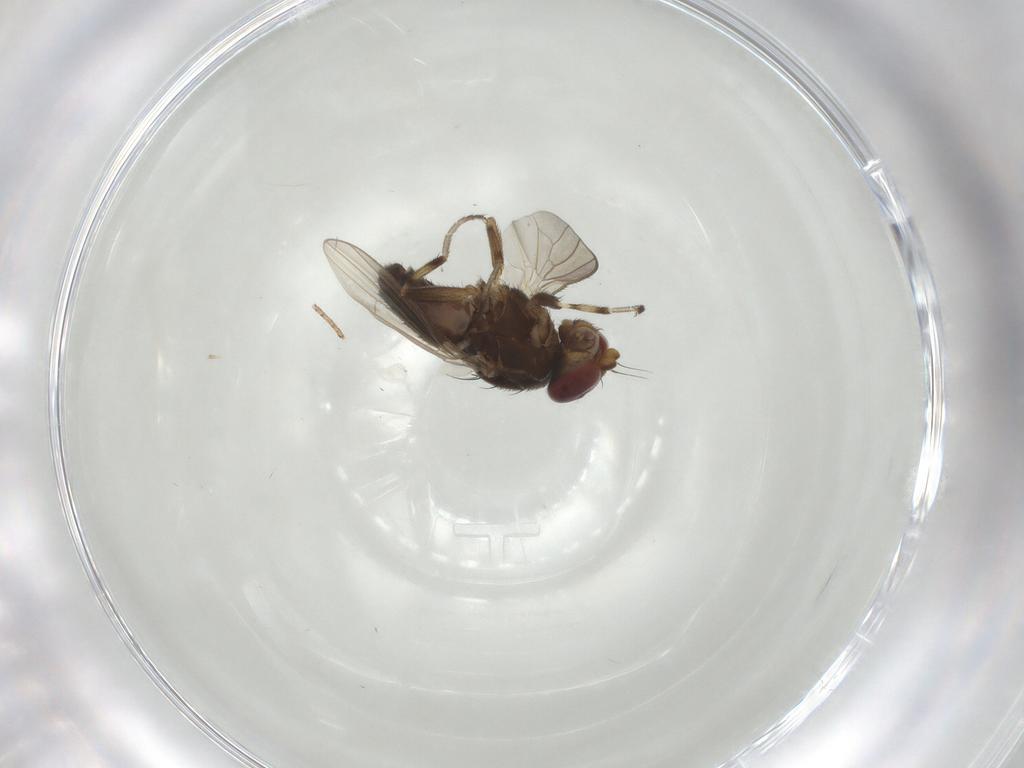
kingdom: Animalia
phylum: Arthropoda
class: Insecta
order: Diptera
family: Heleomyzidae
